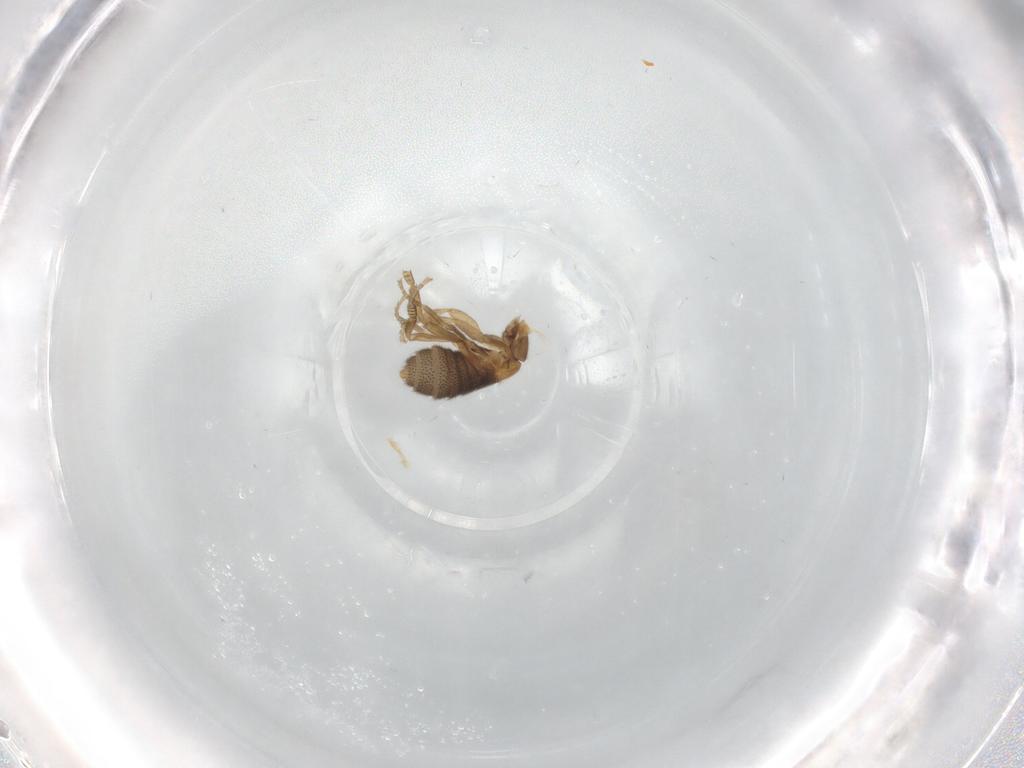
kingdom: Animalia
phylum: Arthropoda
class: Insecta
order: Diptera
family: Phoridae
